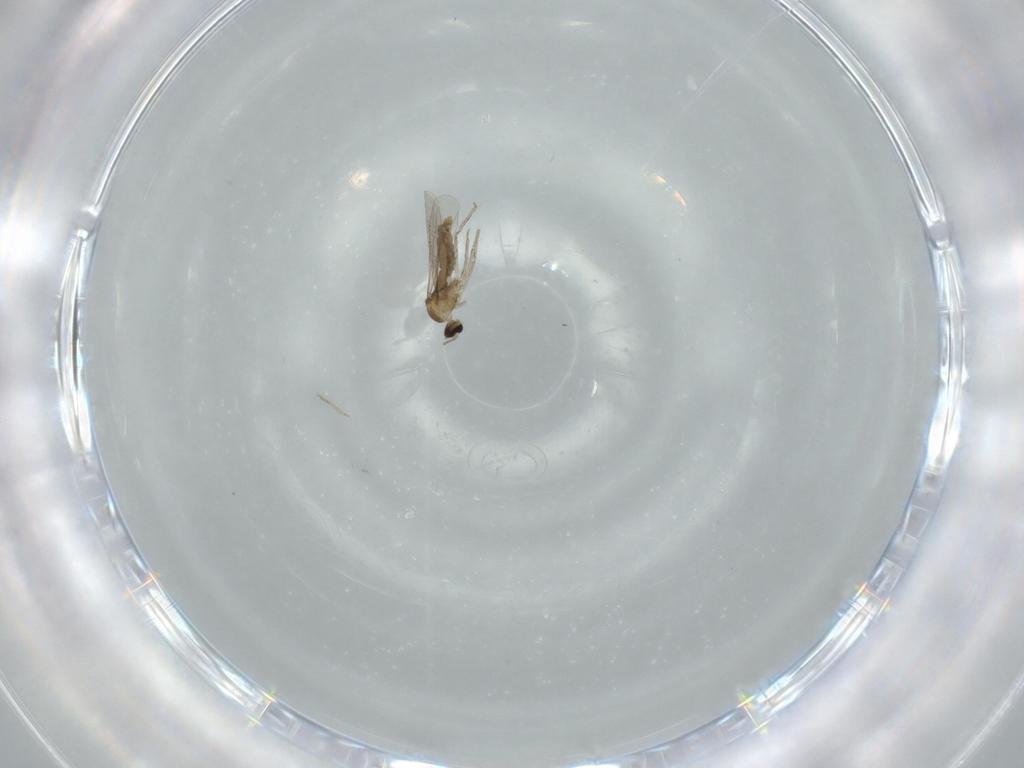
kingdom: Animalia
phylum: Arthropoda
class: Insecta
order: Diptera
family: Cecidomyiidae
